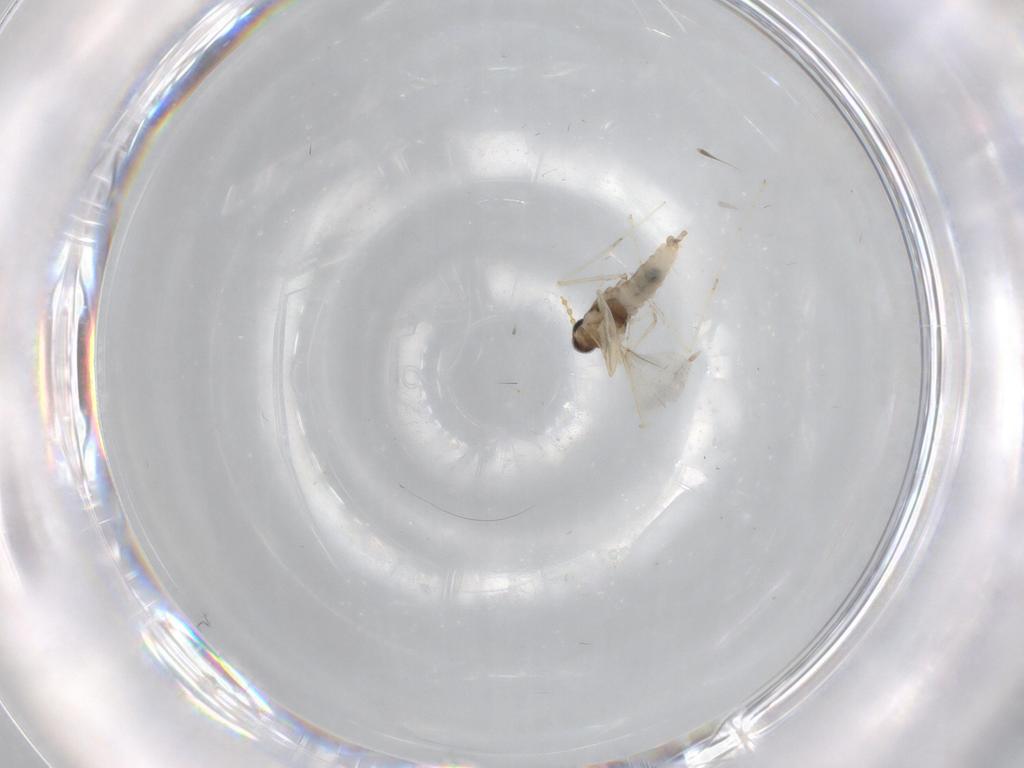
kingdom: Animalia
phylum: Arthropoda
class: Insecta
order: Diptera
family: Cecidomyiidae
